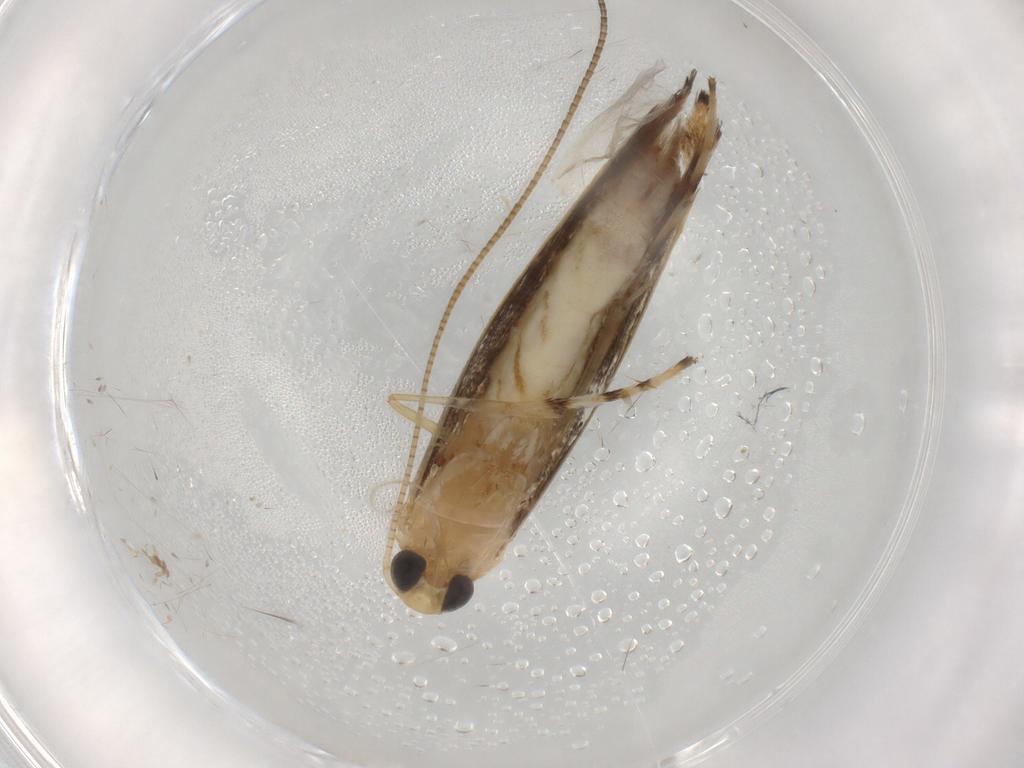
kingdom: Animalia
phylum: Arthropoda
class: Insecta
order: Lepidoptera
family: Nepticulidae
